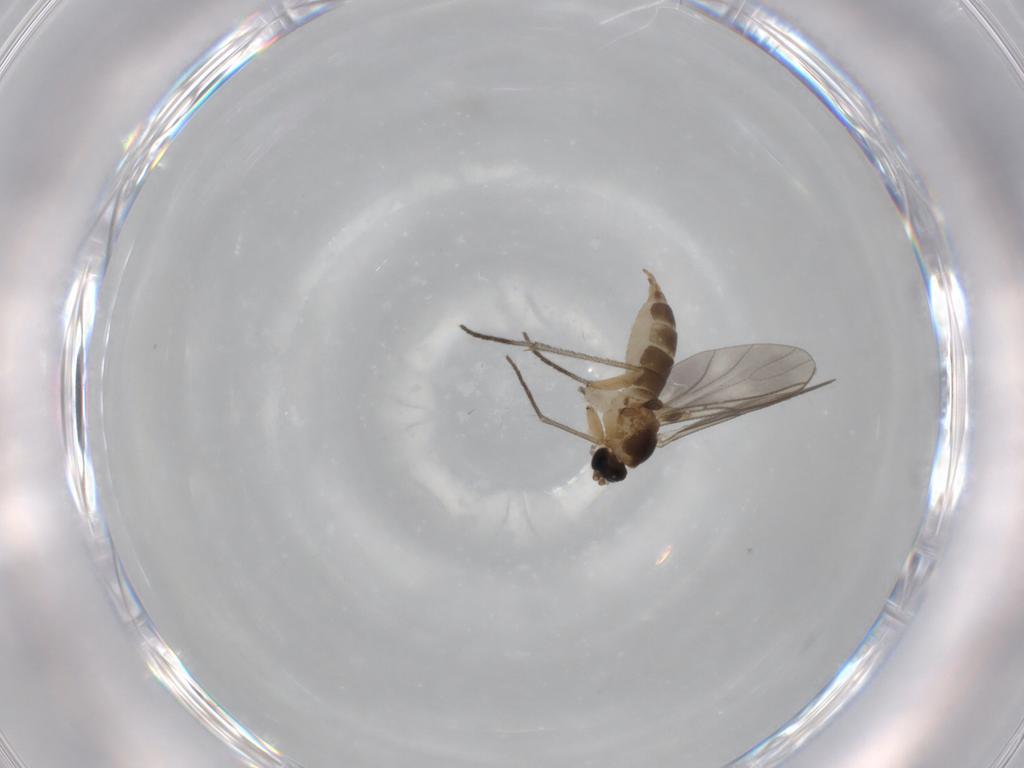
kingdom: Animalia
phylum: Arthropoda
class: Insecta
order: Diptera
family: Sciaridae
